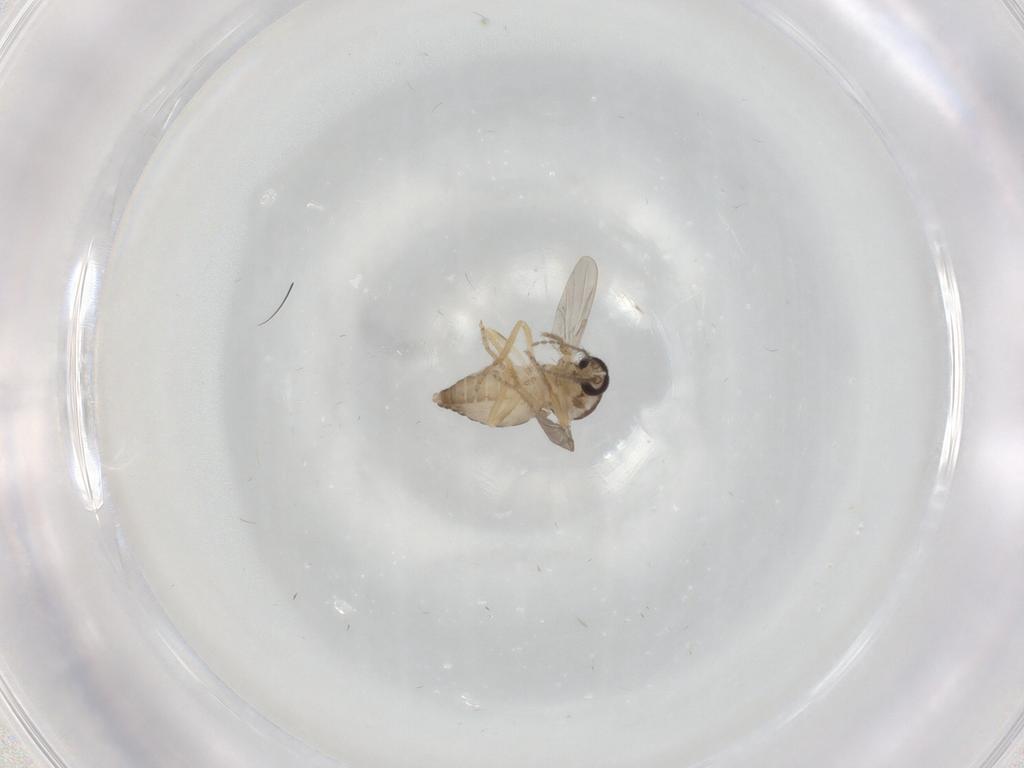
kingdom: Animalia
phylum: Arthropoda
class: Insecta
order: Diptera
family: Ceratopogonidae
